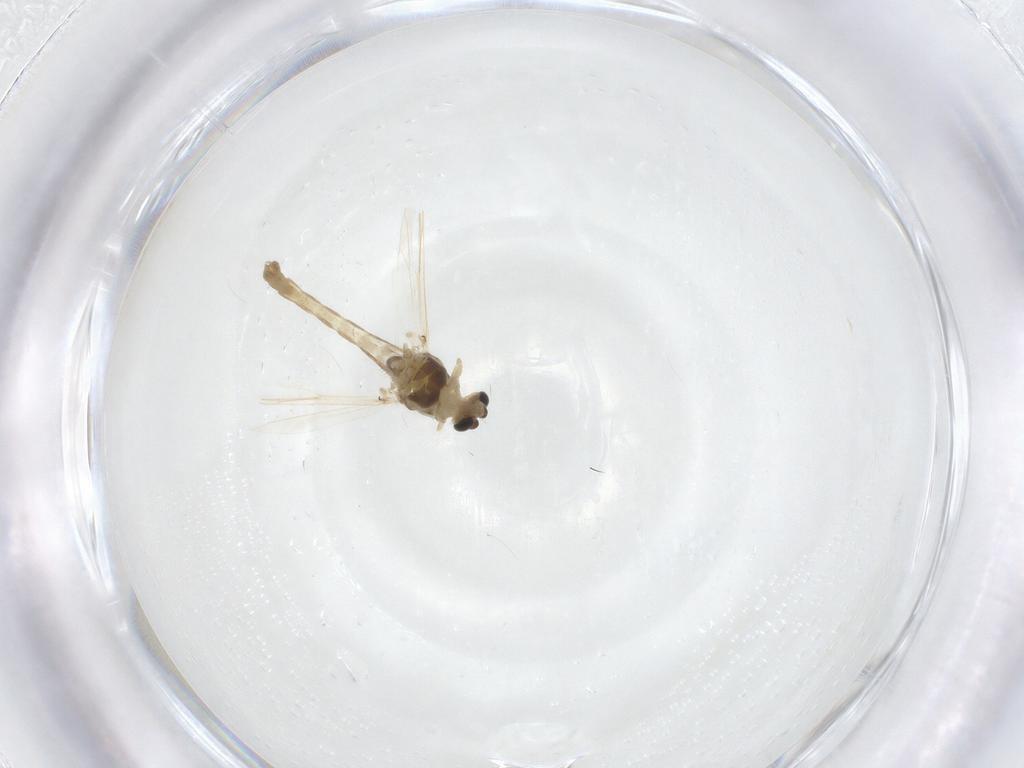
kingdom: Animalia
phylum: Arthropoda
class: Insecta
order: Diptera
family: Chironomidae
